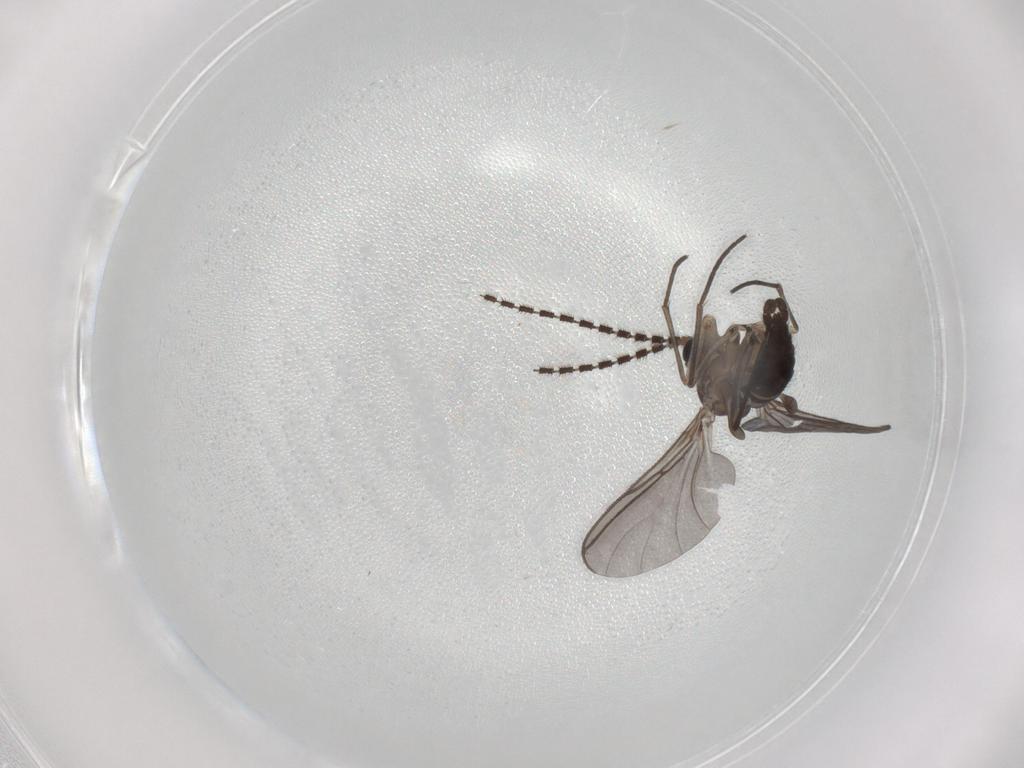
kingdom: Animalia
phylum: Arthropoda
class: Insecta
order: Diptera
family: Sciaridae
